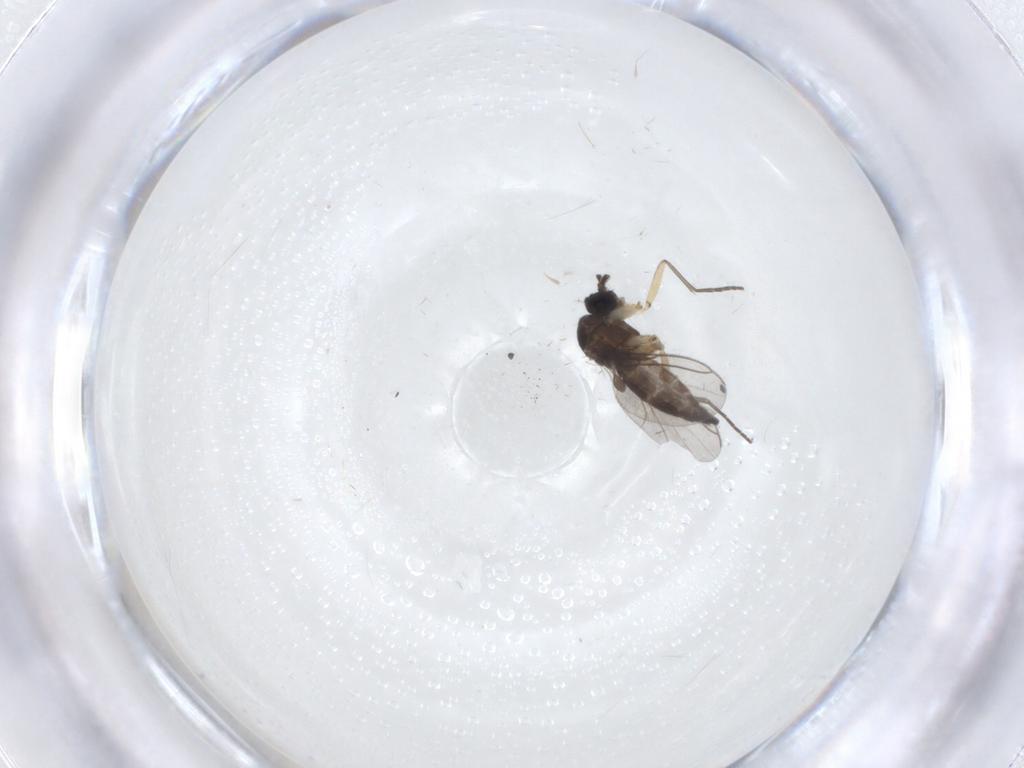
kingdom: Animalia
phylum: Arthropoda
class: Insecta
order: Diptera
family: Sciaridae
